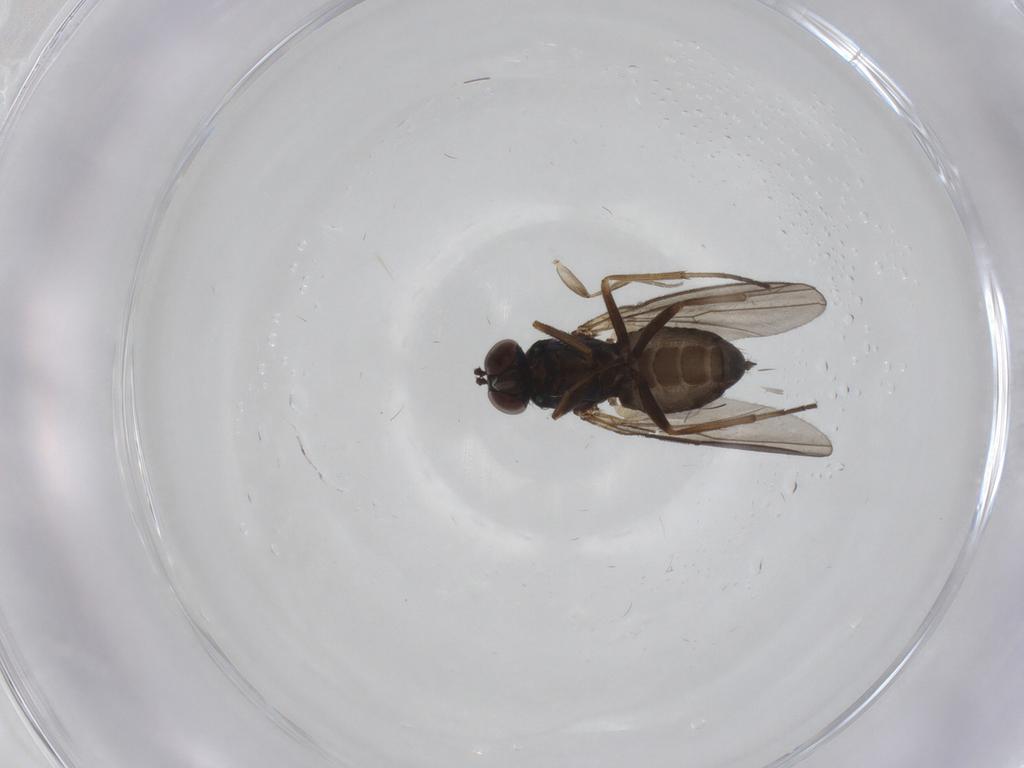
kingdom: Animalia
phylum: Arthropoda
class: Insecta
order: Diptera
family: Dolichopodidae
